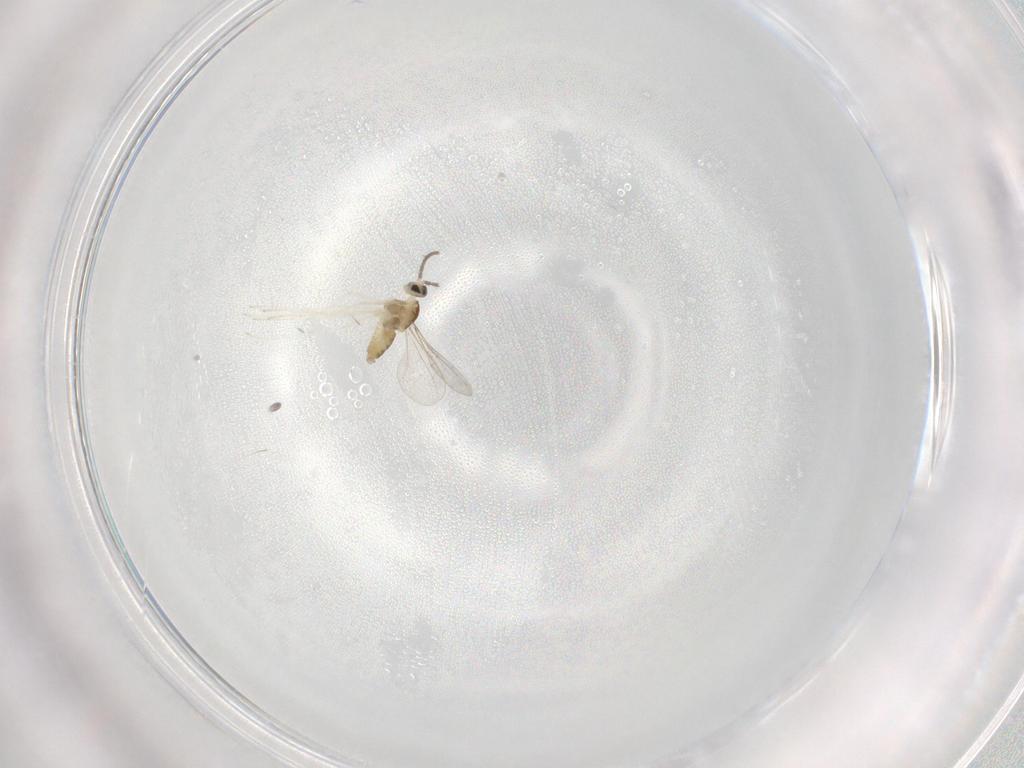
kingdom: Animalia
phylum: Arthropoda
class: Insecta
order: Diptera
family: Phoridae
